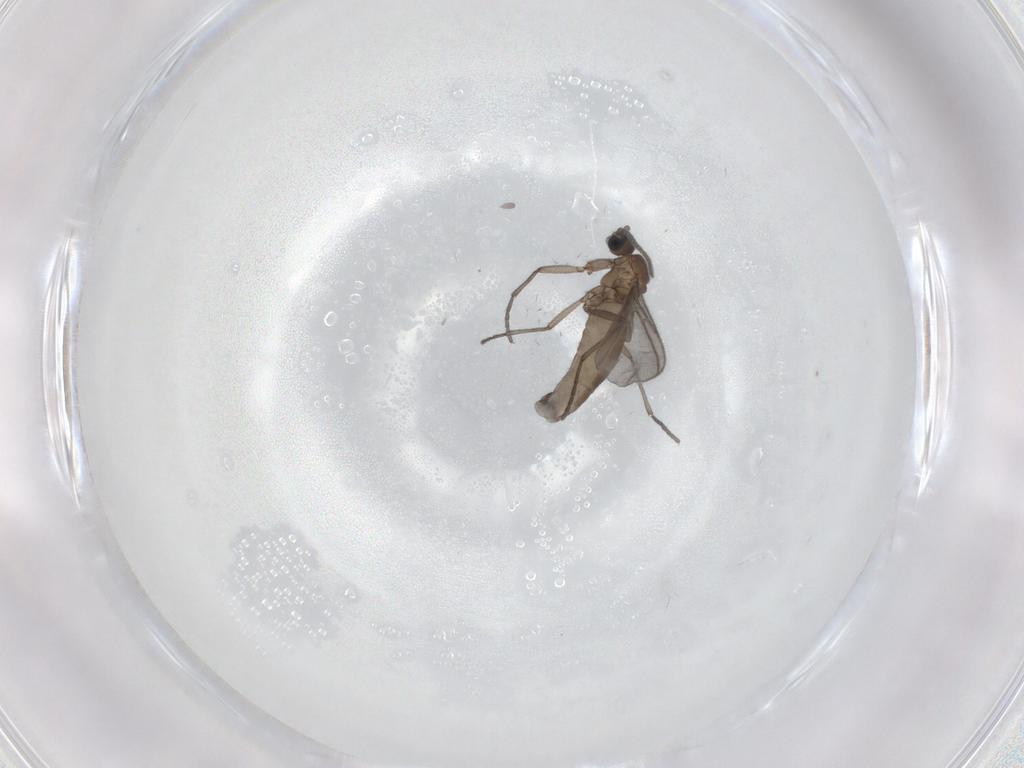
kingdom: Animalia
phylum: Arthropoda
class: Insecta
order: Diptera
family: Sciaridae
